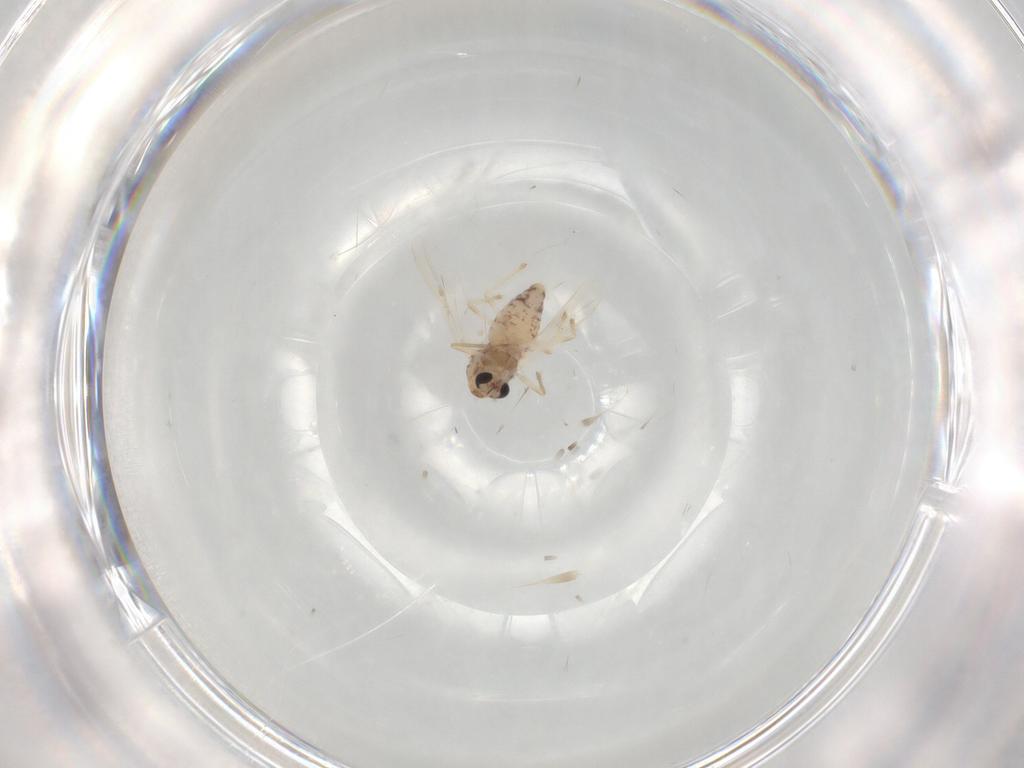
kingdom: Animalia
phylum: Arthropoda
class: Insecta
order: Diptera
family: Chironomidae
